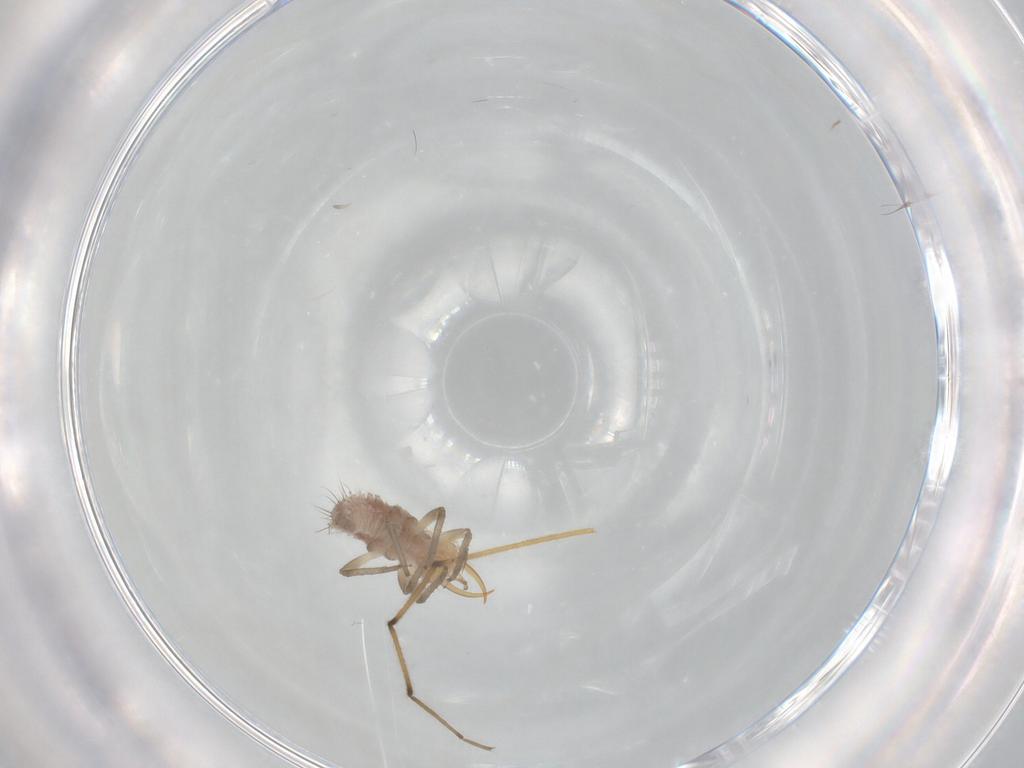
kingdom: Animalia
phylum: Arthropoda
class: Insecta
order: Neuroptera
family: Chrysopidae
